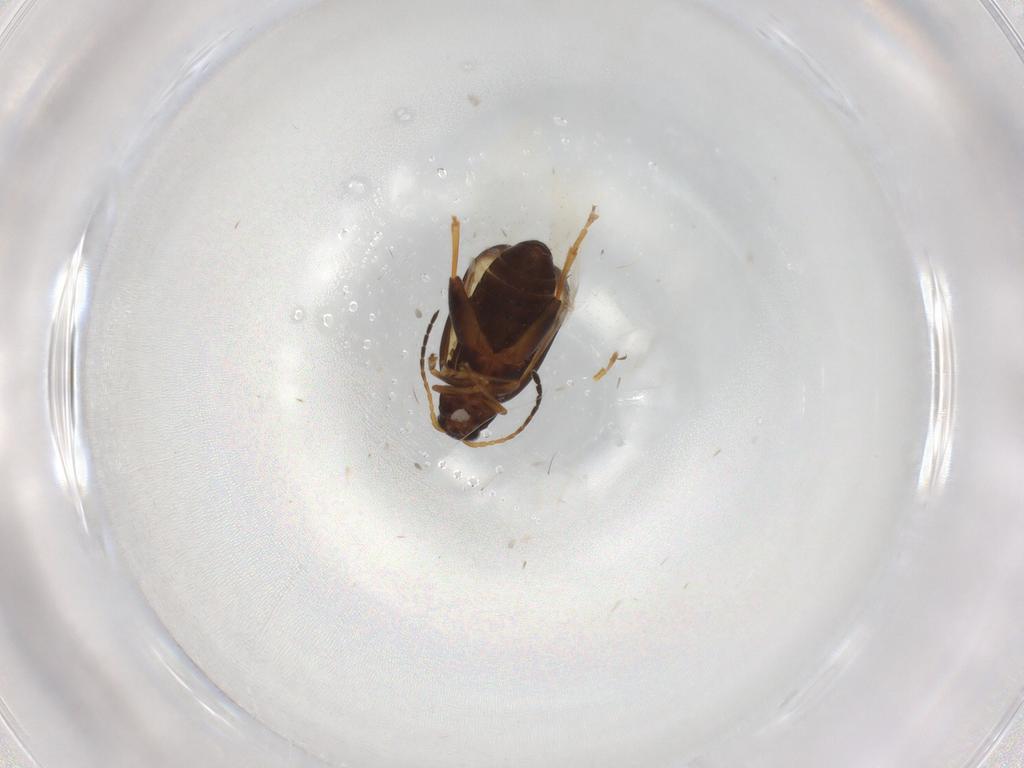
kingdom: Animalia
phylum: Arthropoda
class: Insecta
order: Coleoptera
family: Chrysomelidae
